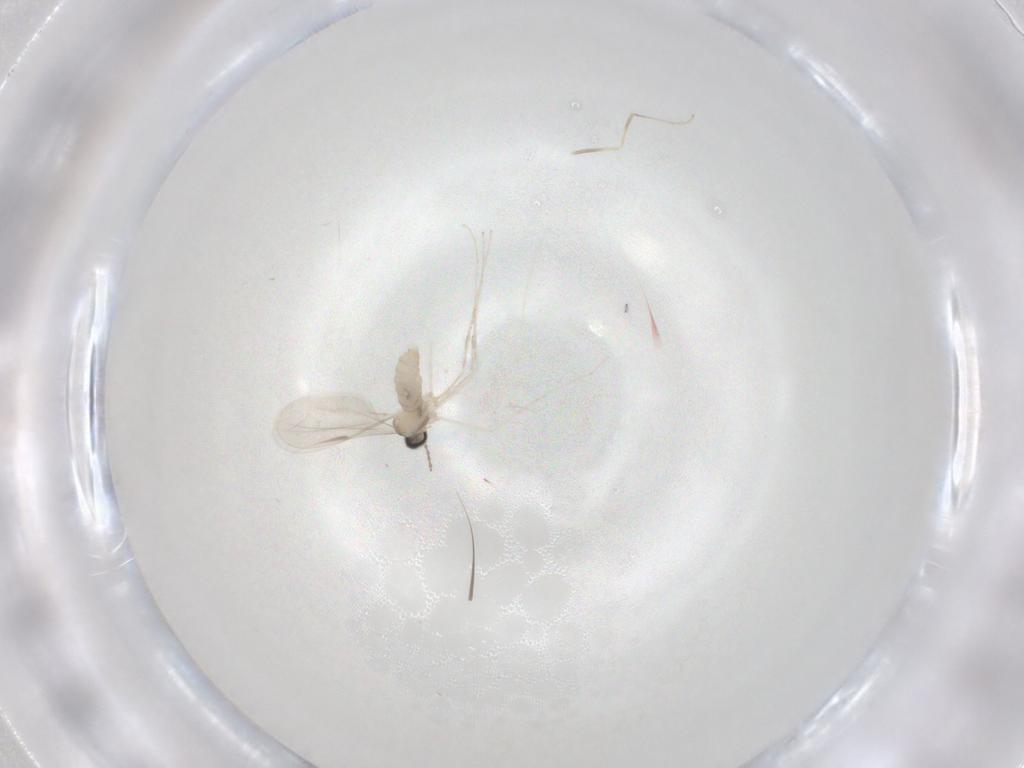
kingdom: Animalia
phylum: Arthropoda
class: Insecta
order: Diptera
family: Cecidomyiidae
